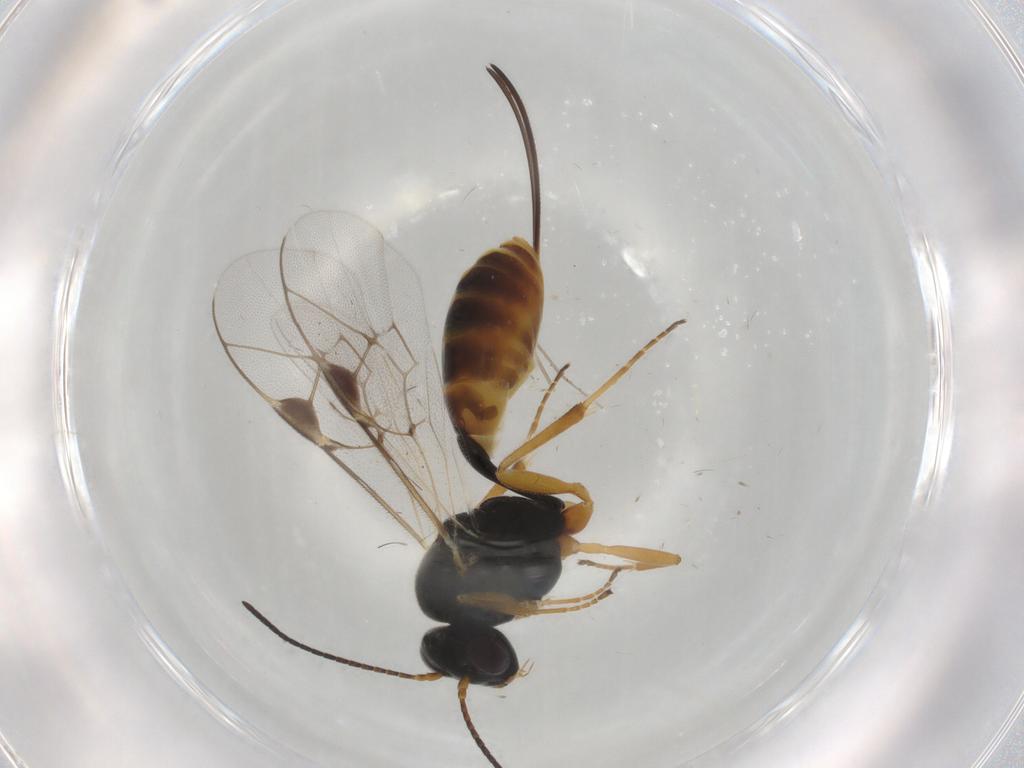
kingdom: Animalia
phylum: Arthropoda
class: Insecta
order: Hymenoptera
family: Ichneumonidae
